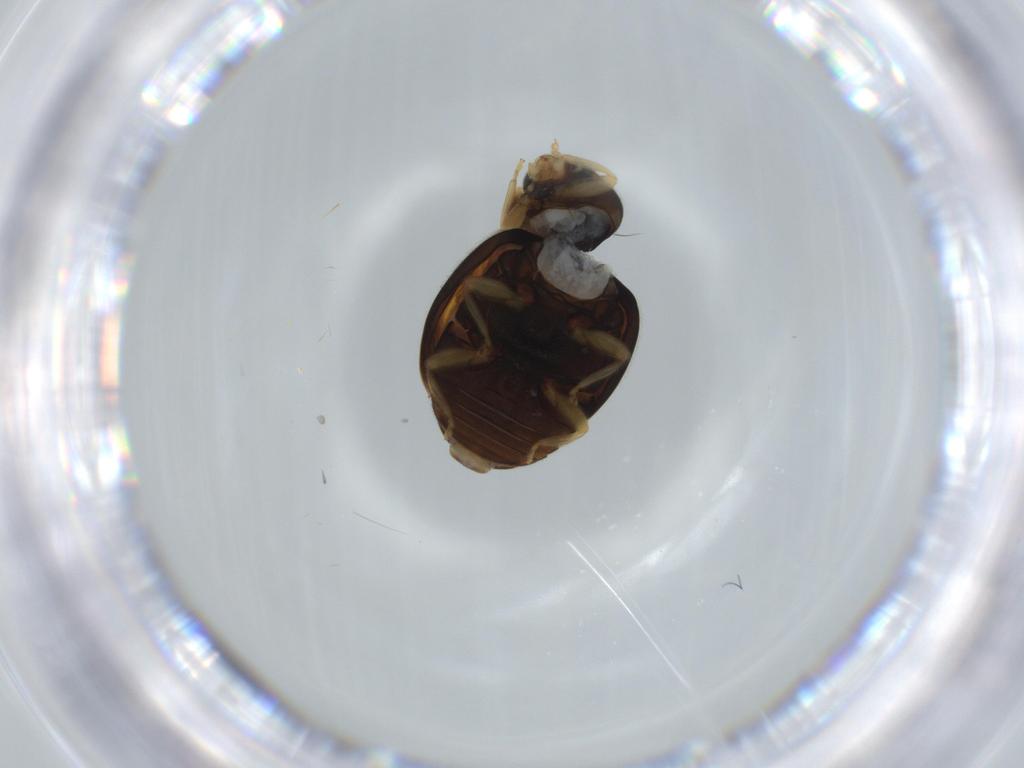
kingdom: Animalia
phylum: Arthropoda
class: Insecta
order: Coleoptera
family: Coccinellidae
